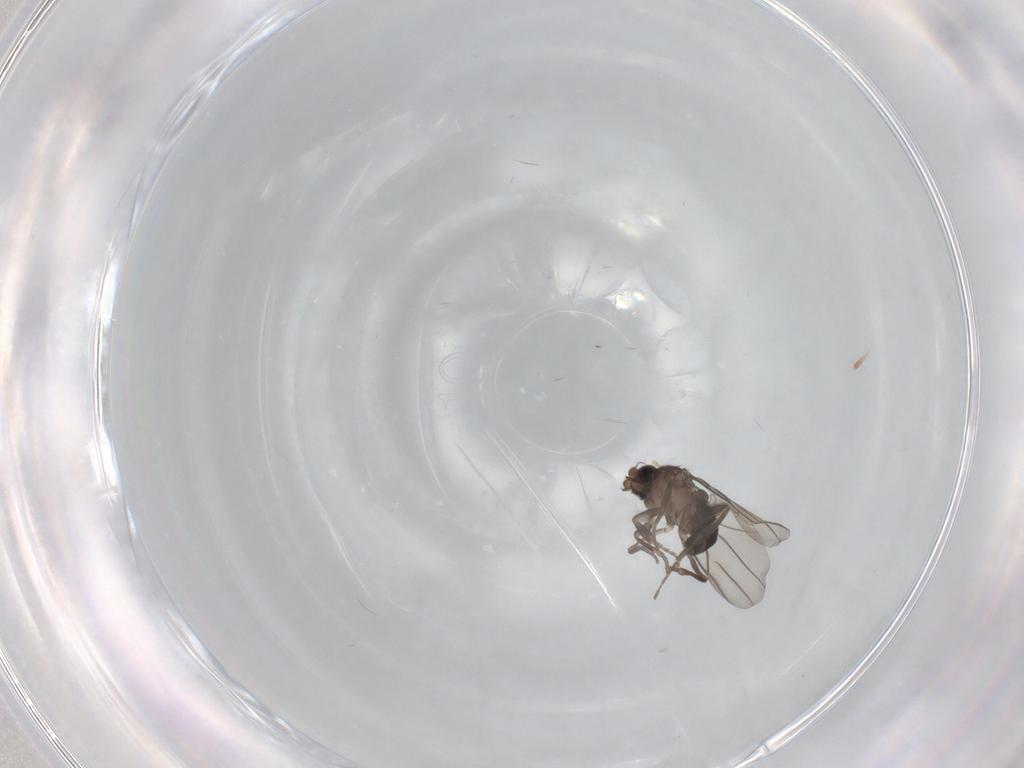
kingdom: Animalia
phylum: Arthropoda
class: Insecta
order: Diptera
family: Phoridae
